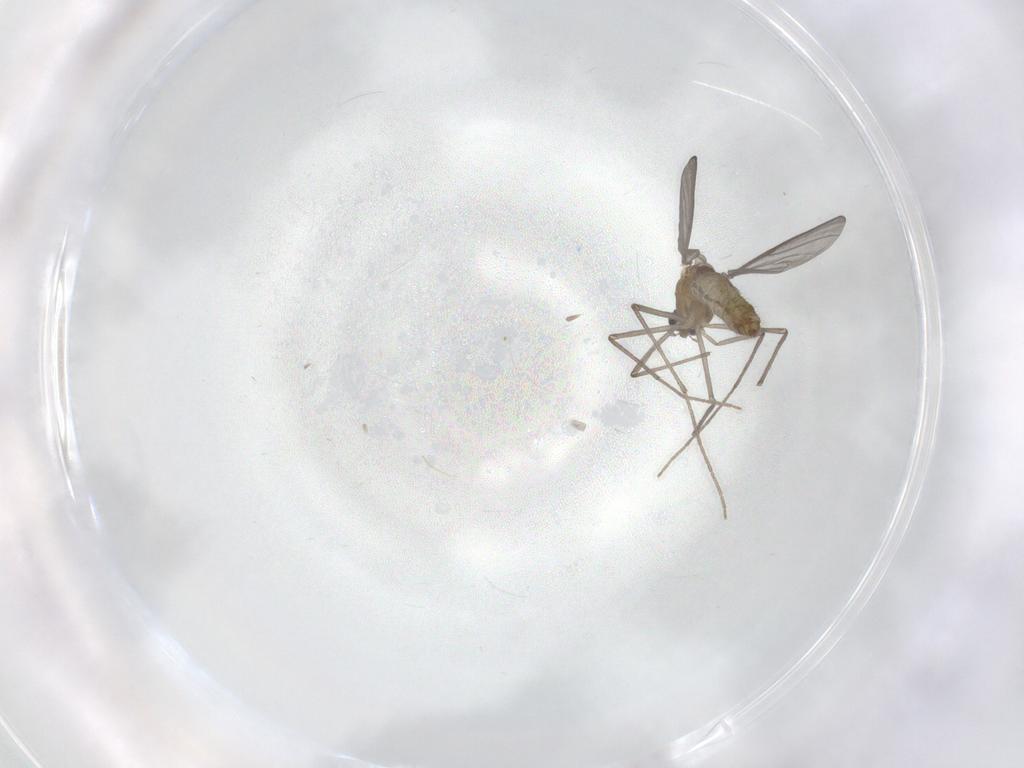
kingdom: Animalia
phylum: Arthropoda
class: Insecta
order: Diptera
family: Chironomidae
